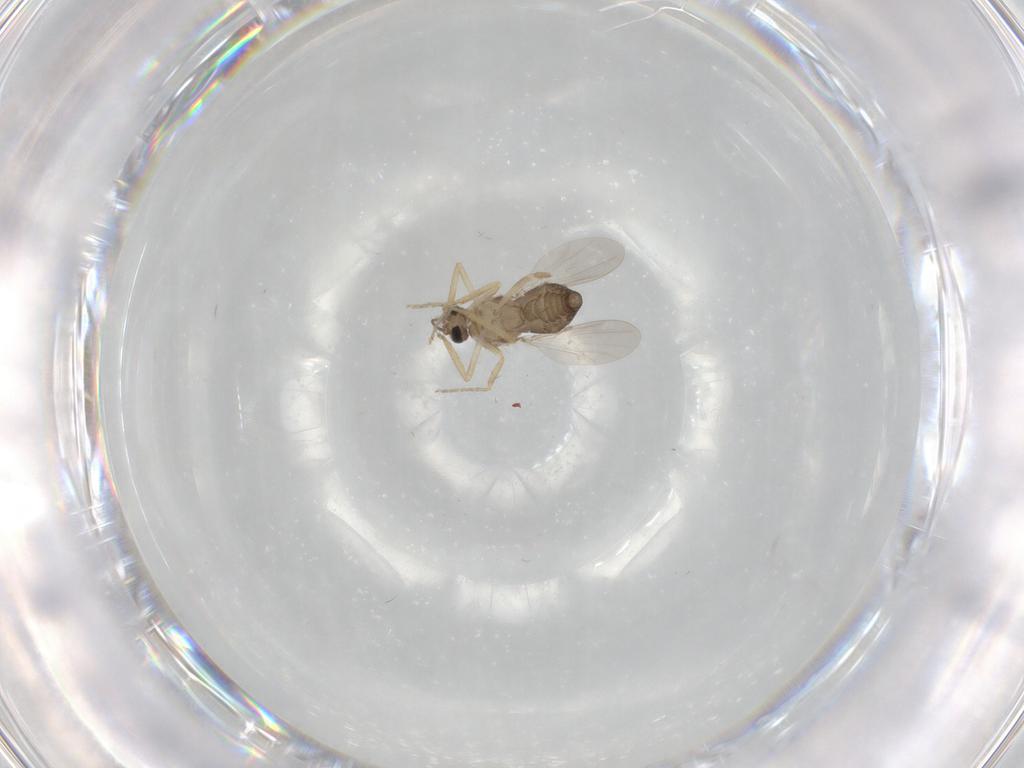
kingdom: Animalia
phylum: Arthropoda
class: Insecta
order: Diptera
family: Ceratopogonidae
